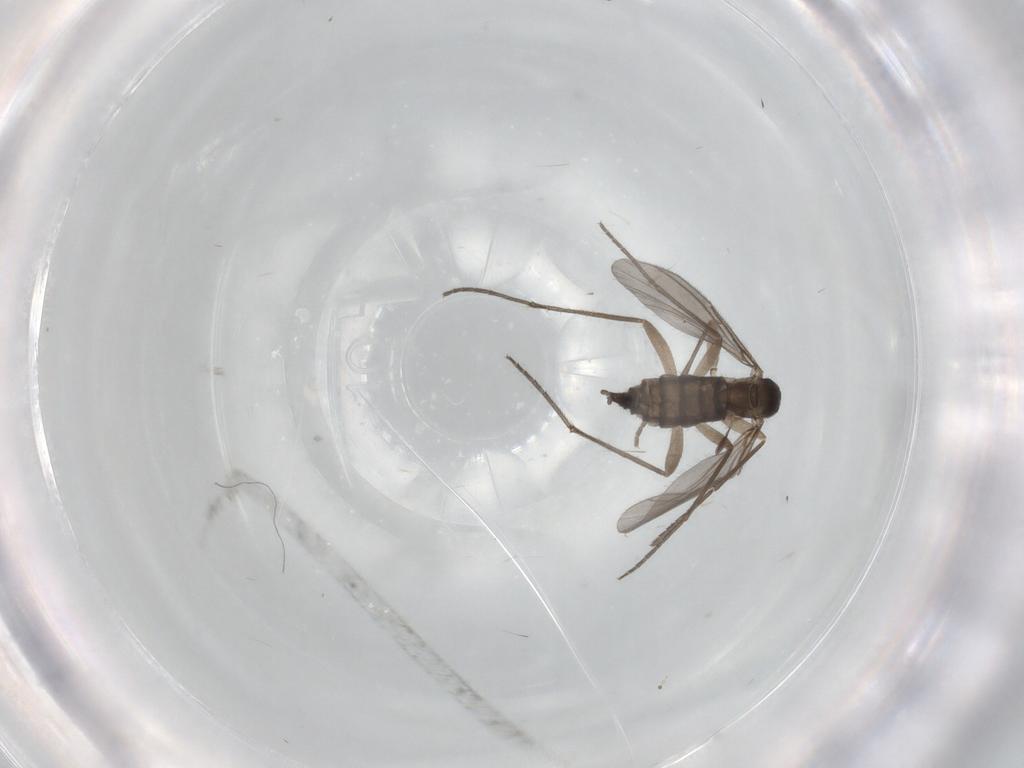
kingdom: Animalia
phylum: Arthropoda
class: Insecta
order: Diptera
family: Sciaridae
